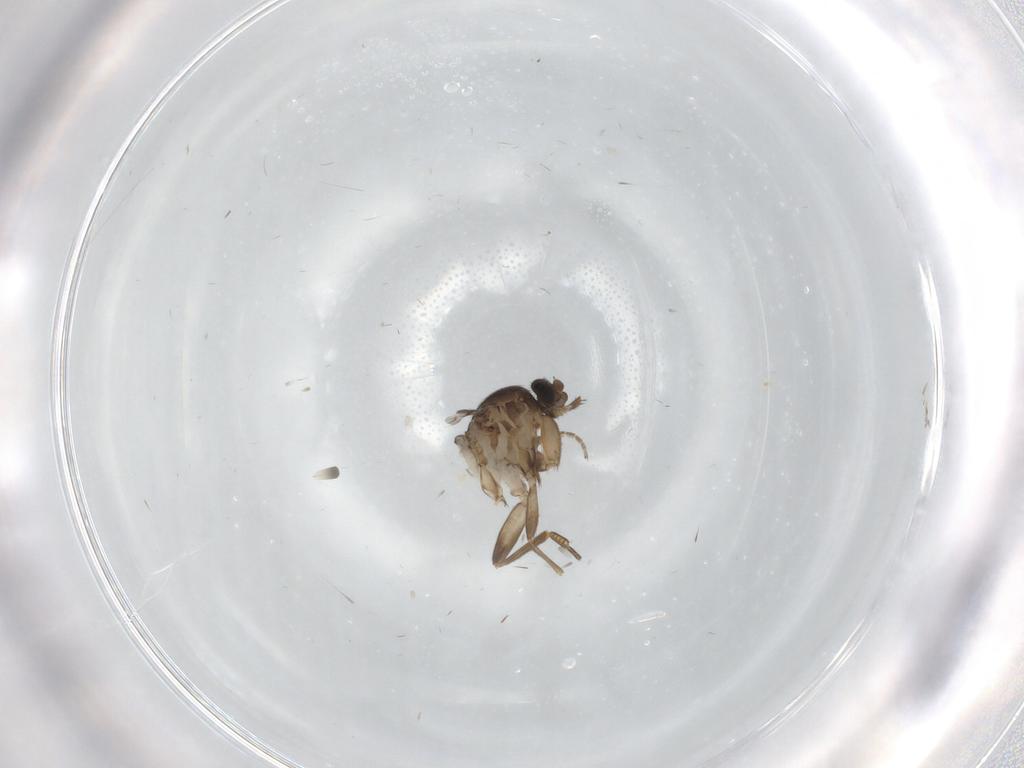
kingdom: Animalia
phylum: Arthropoda
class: Insecta
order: Diptera
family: Phoridae
